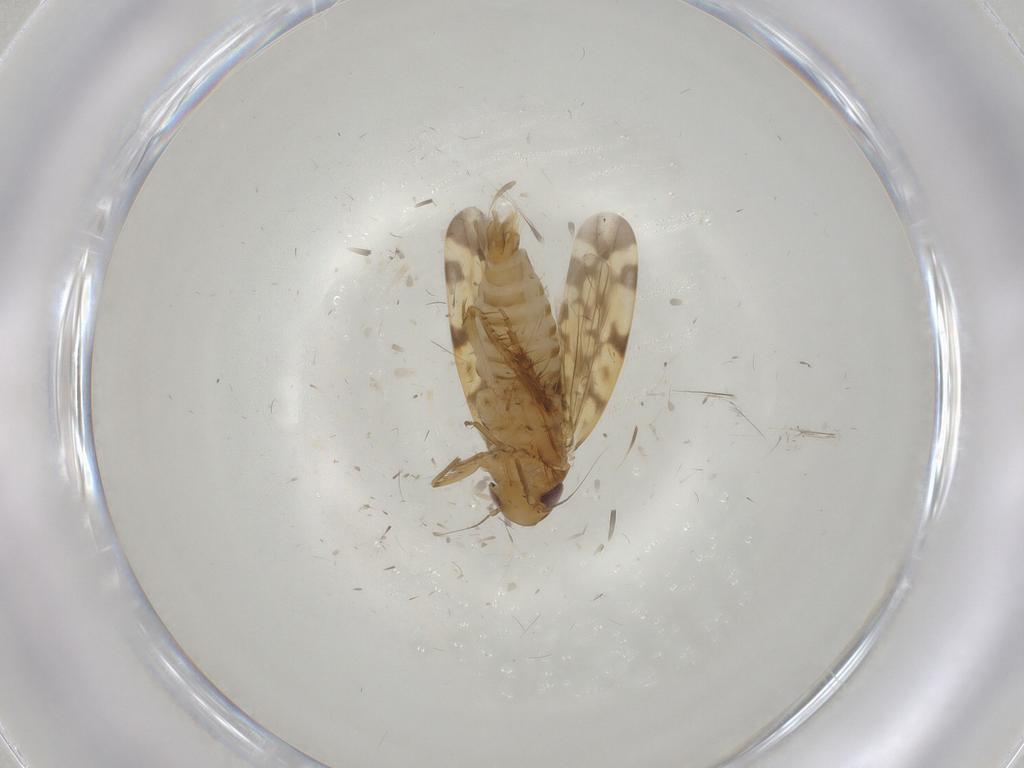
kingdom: Animalia
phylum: Arthropoda
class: Insecta
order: Hemiptera
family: Cicadellidae
